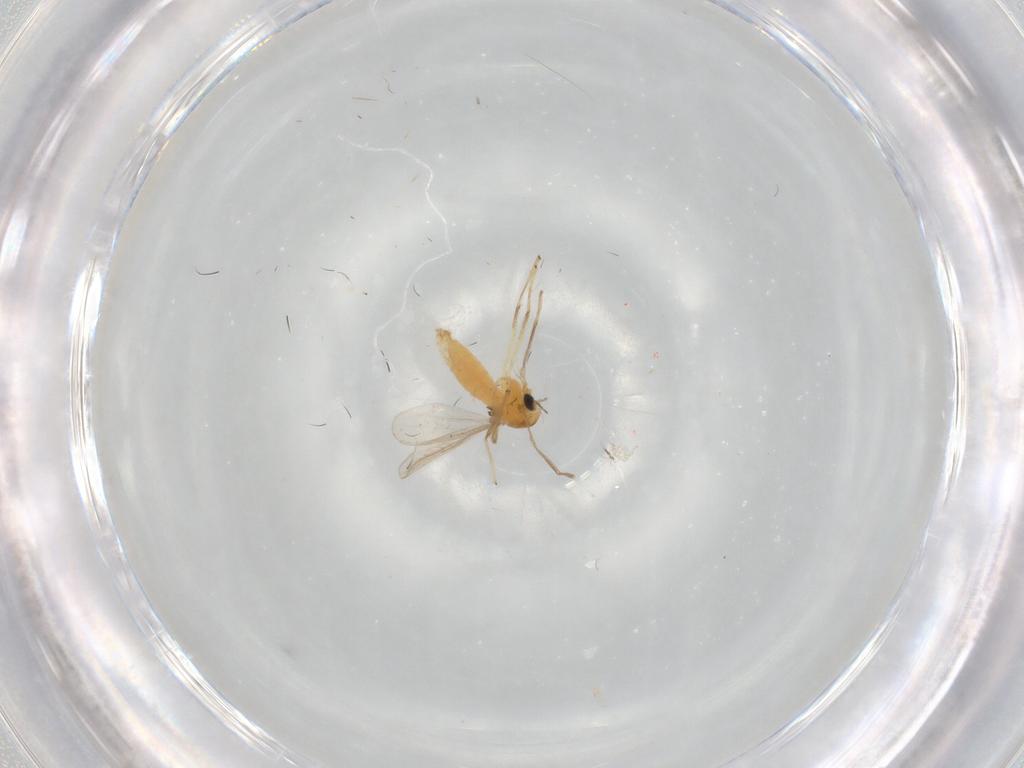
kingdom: Animalia
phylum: Arthropoda
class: Insecta
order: Diptera
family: Chironomidae
